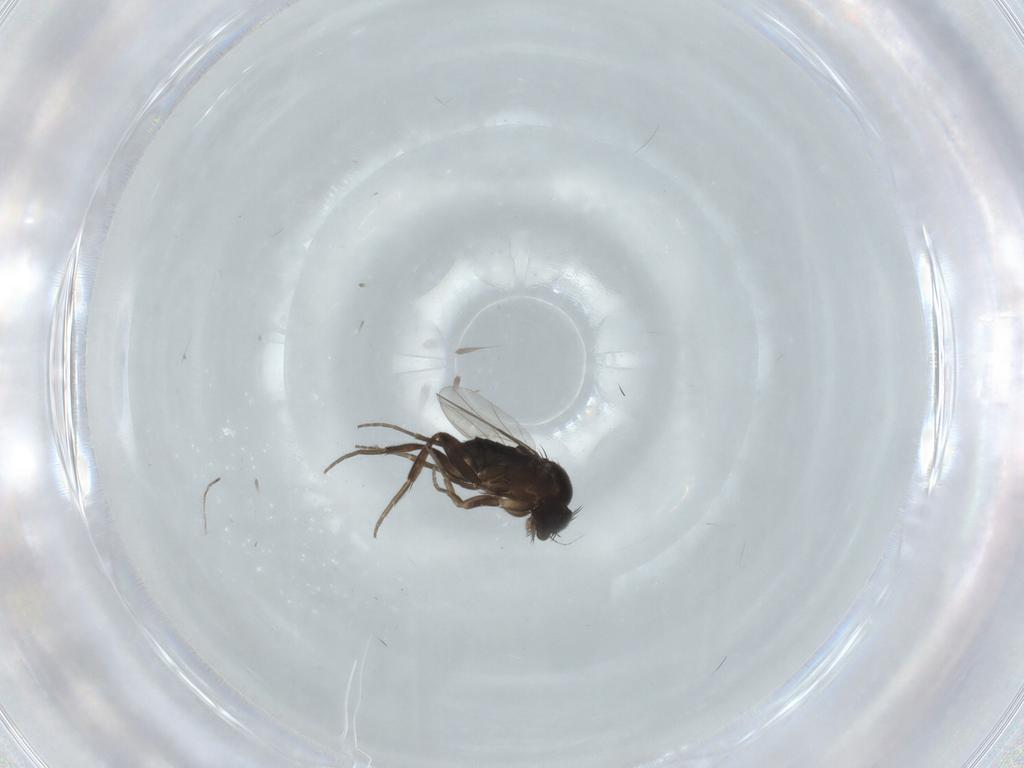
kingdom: Animalia
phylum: Arthropoda
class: Insecta
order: Diptera
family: Phoridae
